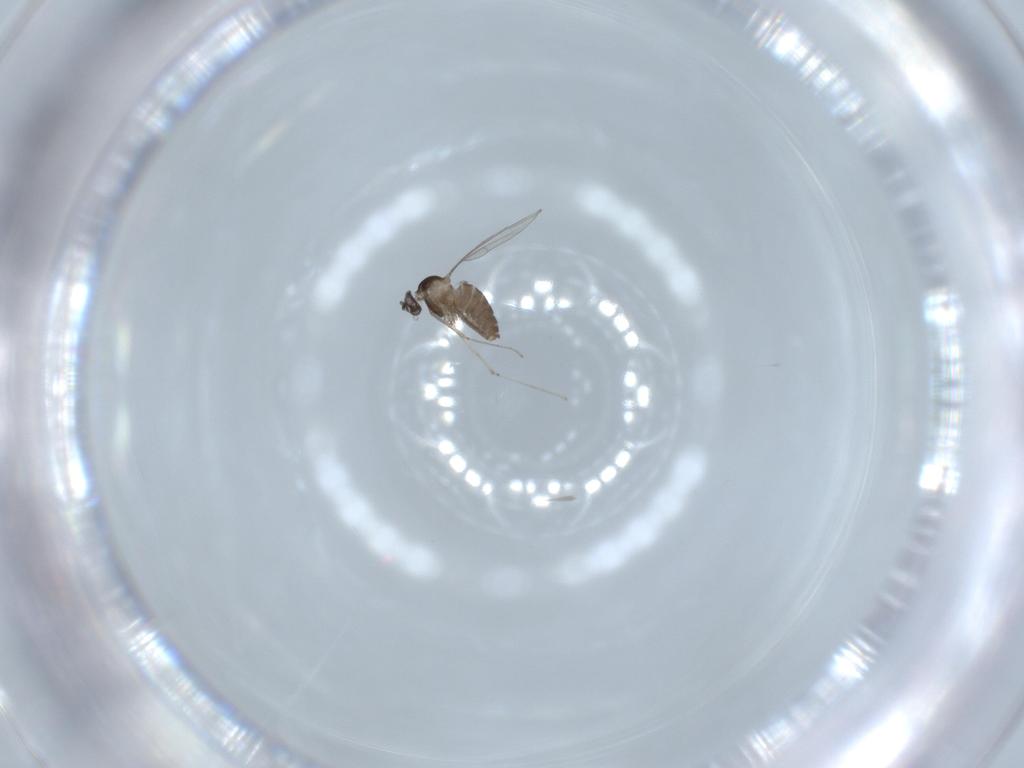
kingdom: Animalia
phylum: Arthropoda
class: Insecta
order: Diptera
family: Cecidomyiidae
